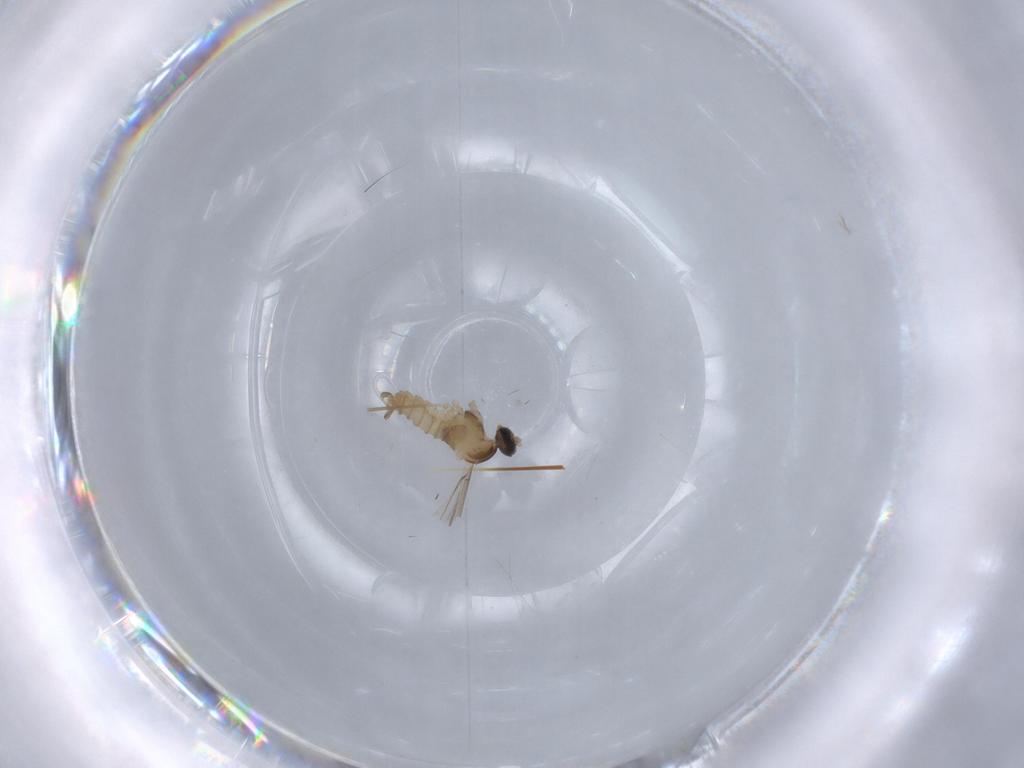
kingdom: Animalia
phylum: Arthropoda
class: Insecta
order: Diptera
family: Cecidomyiidae
